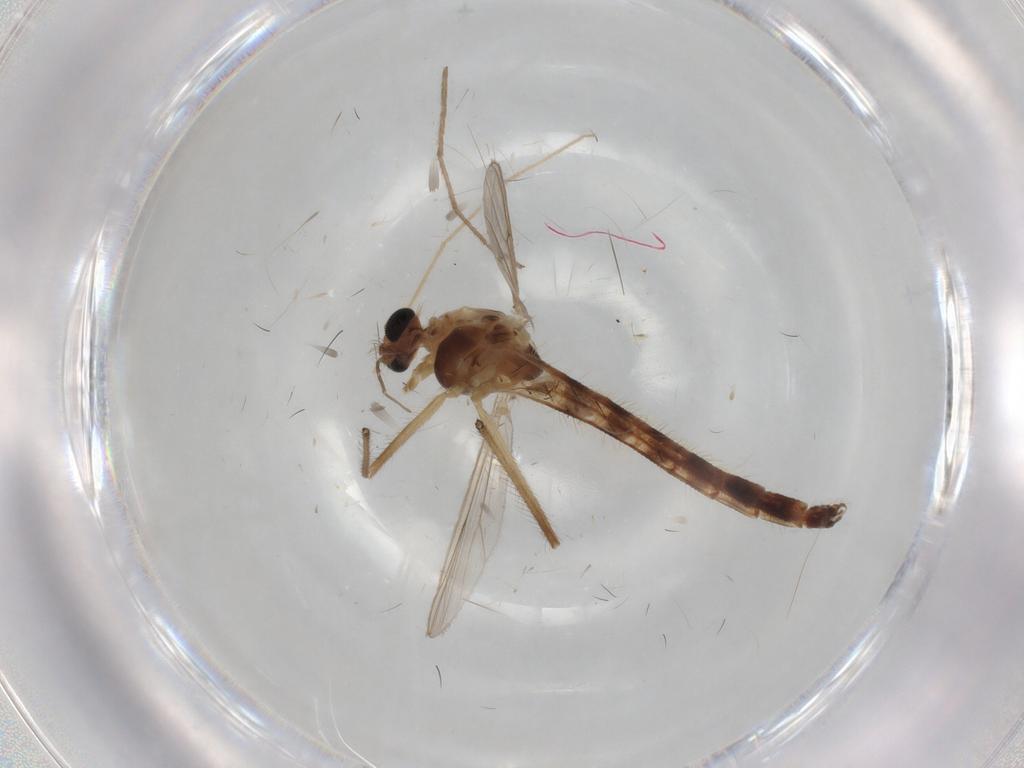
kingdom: Animalia
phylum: Arthropoda
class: Insecta
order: Diptera
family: Chironomidae
